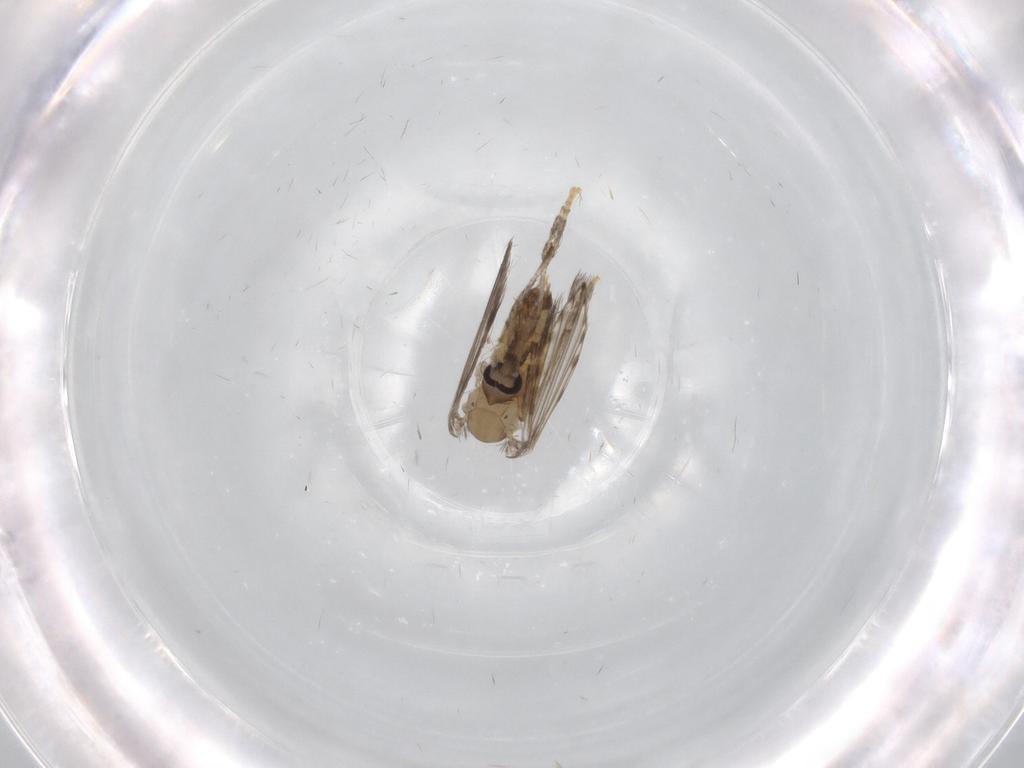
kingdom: Animalia
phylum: Arthropoda
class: Insecta
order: Diptera
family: Psychodidae
